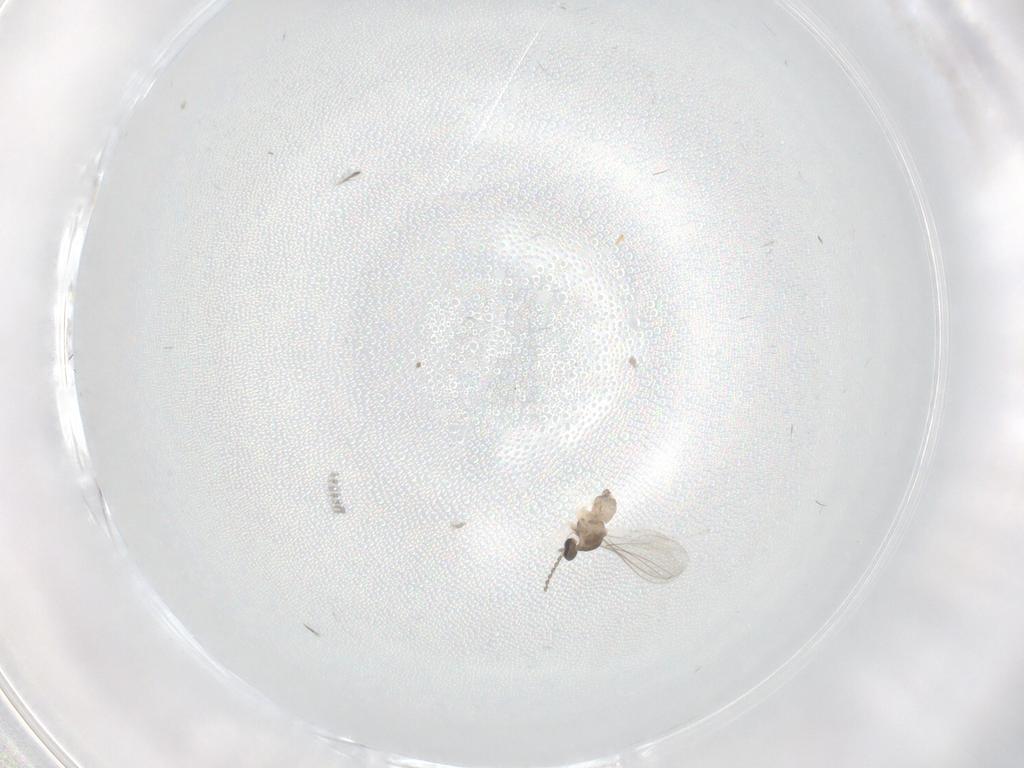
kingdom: Animalia
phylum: Arthropoda
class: Insecta
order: Diptera
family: Cecidomyiidae
